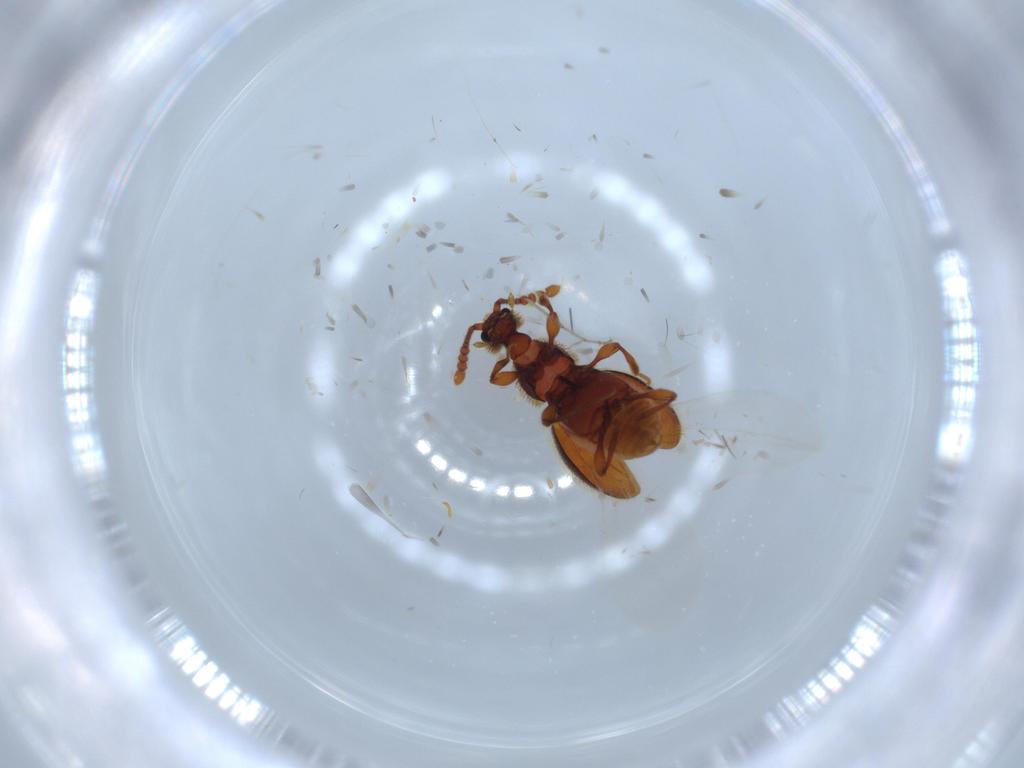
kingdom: Animalia
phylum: Arthropoda
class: Insecta
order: Coleoptera
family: Nitidulidae
